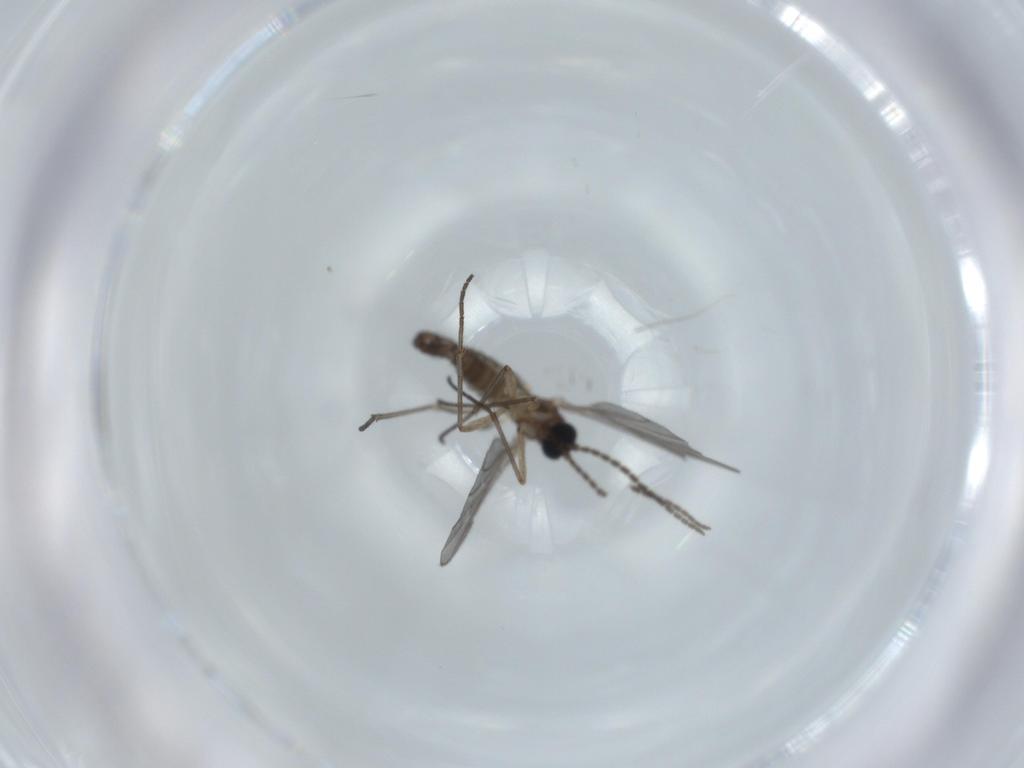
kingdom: Animalia
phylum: Arthropoda
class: Insecta
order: Diptera
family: Sciaridae
